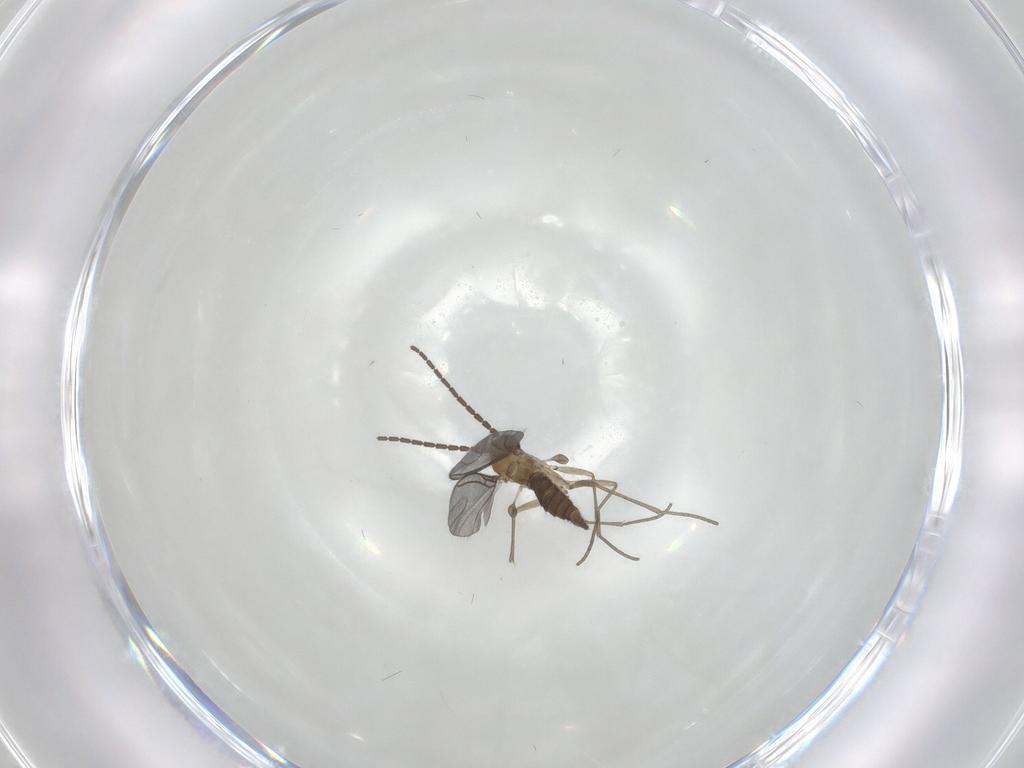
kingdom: Animalia
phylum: Arthropoda
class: Insecta
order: Diptera
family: Sciaridae
